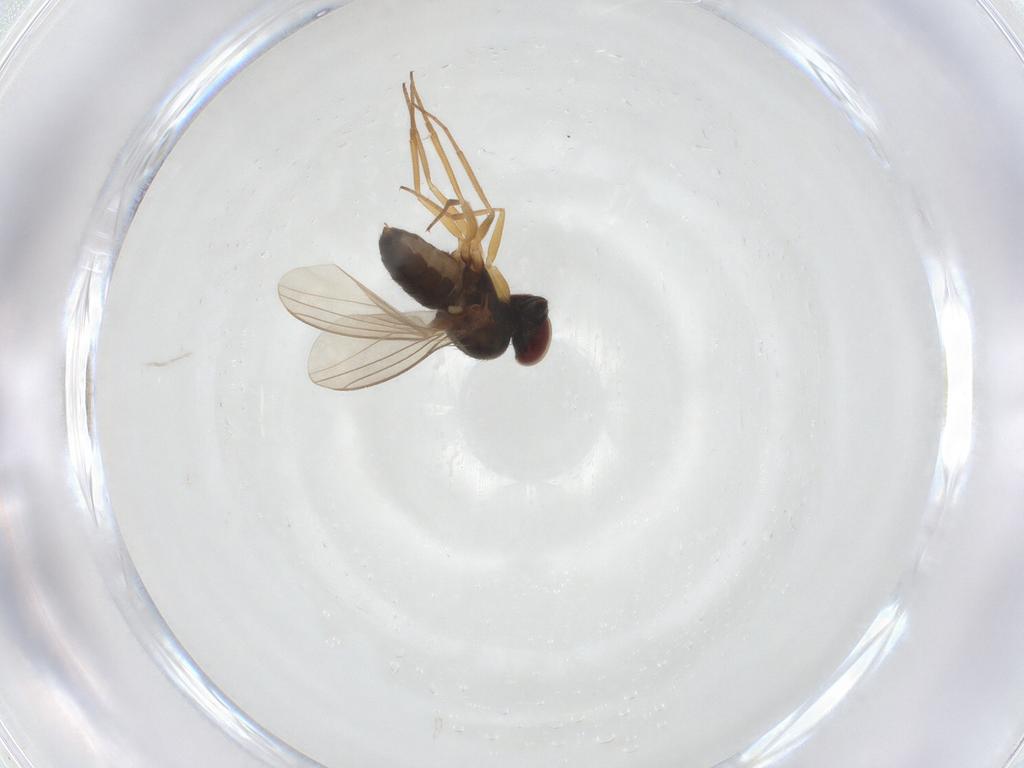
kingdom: Animalia
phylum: Arthropoda
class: Insecta
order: Diptera
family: Dolichopodidae
